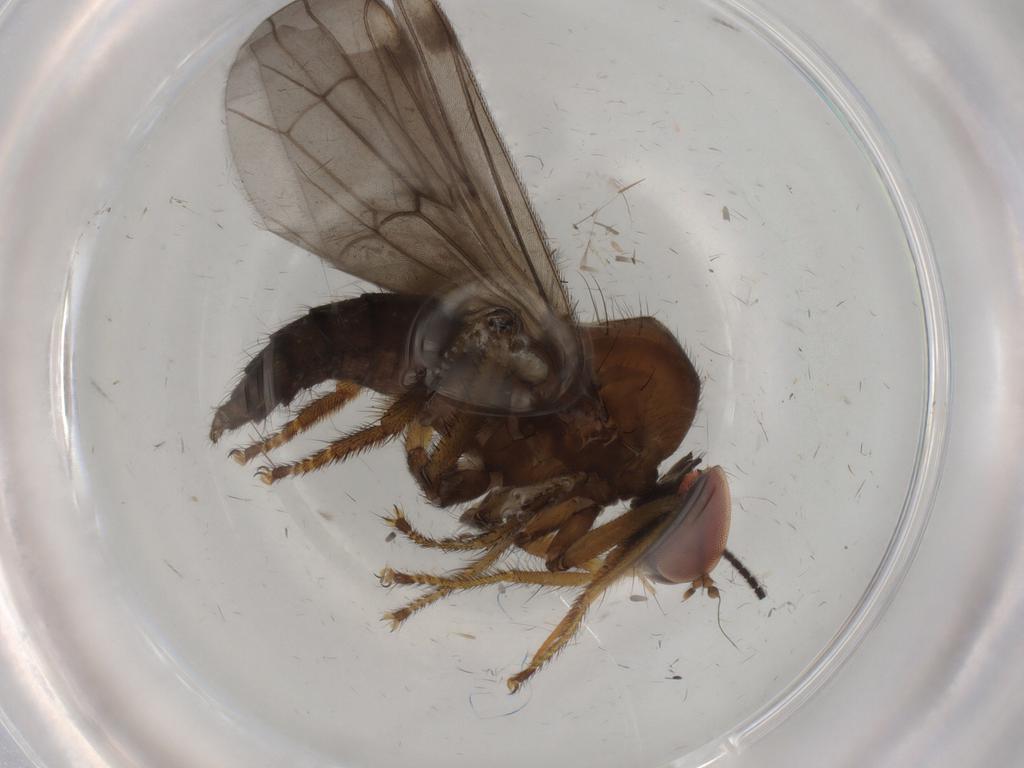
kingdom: Animalia
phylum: Arthropoda
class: Insecta
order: Diptera
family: Hybotidae
